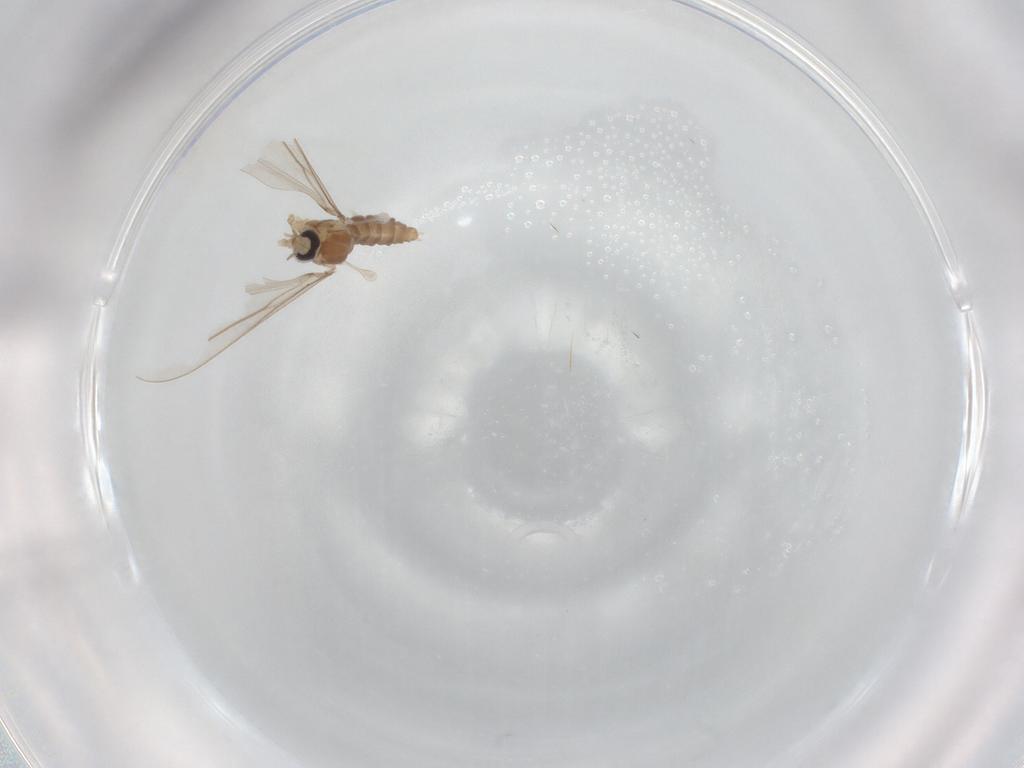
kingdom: Animalia
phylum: Arthropoda
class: Insecta
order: Diptera
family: Cecidomyiidae
